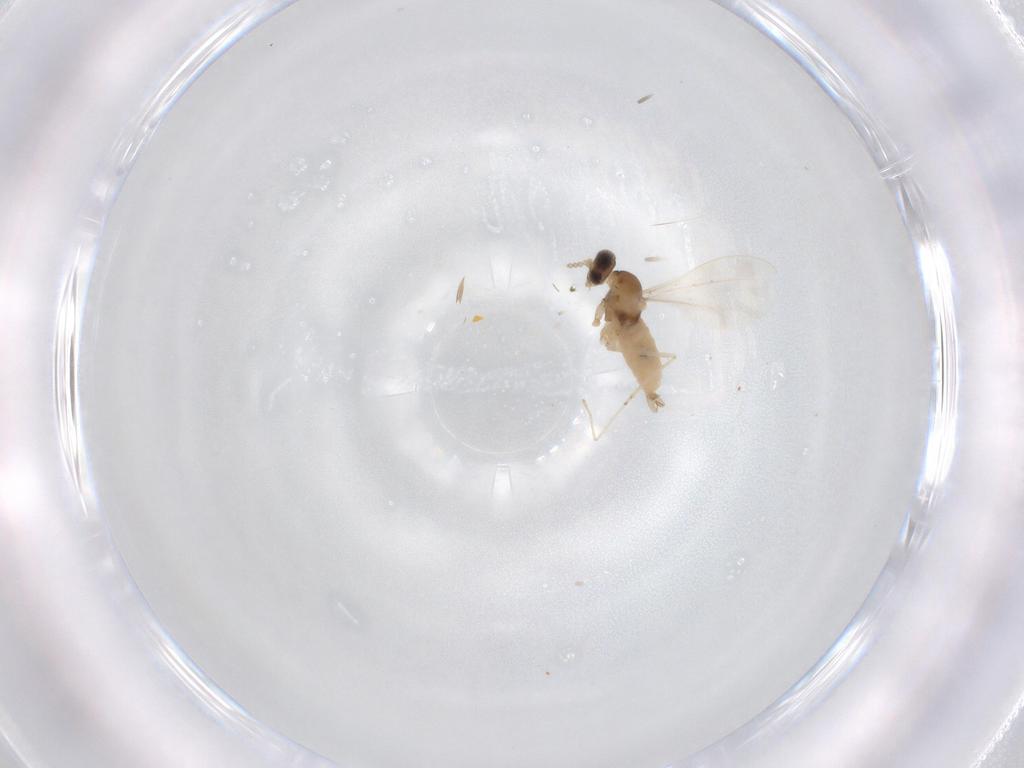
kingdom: Animalia
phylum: Arthropoda
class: Insecta
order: Diptera
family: Cecidomyiidae
